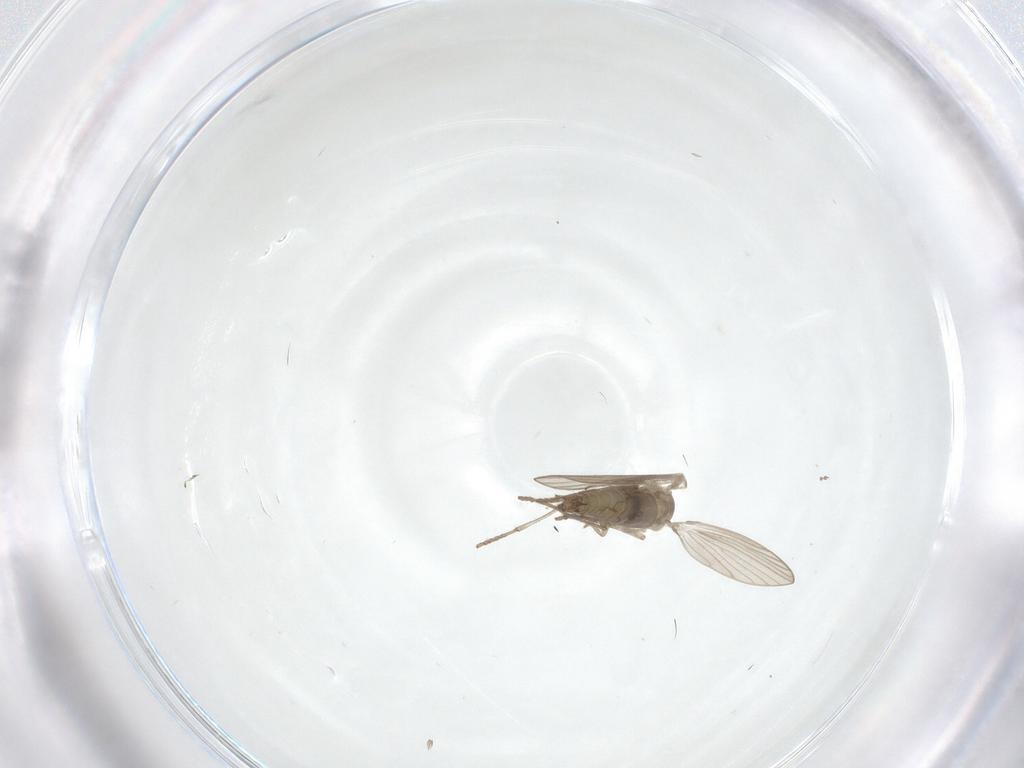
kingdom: Animalia
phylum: Arthropoda
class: Insecta
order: Diptera
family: Psychodidae
